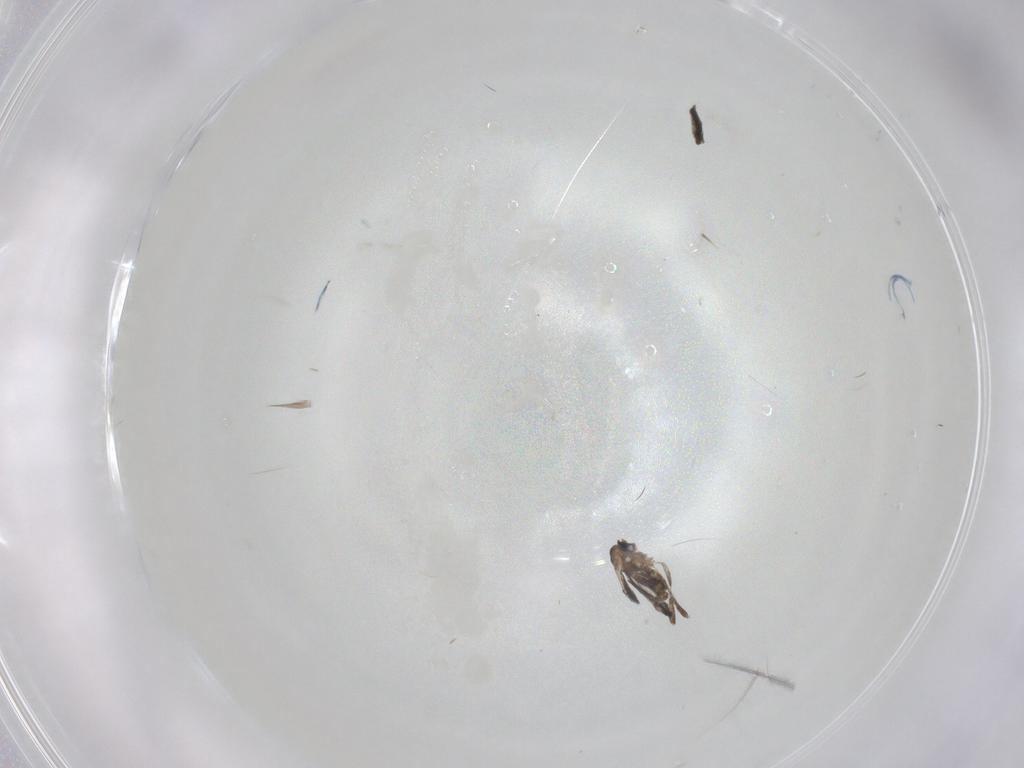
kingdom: Animalia
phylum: Arthropoda
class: Insecta
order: Diptera
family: Cecidomyiidae
